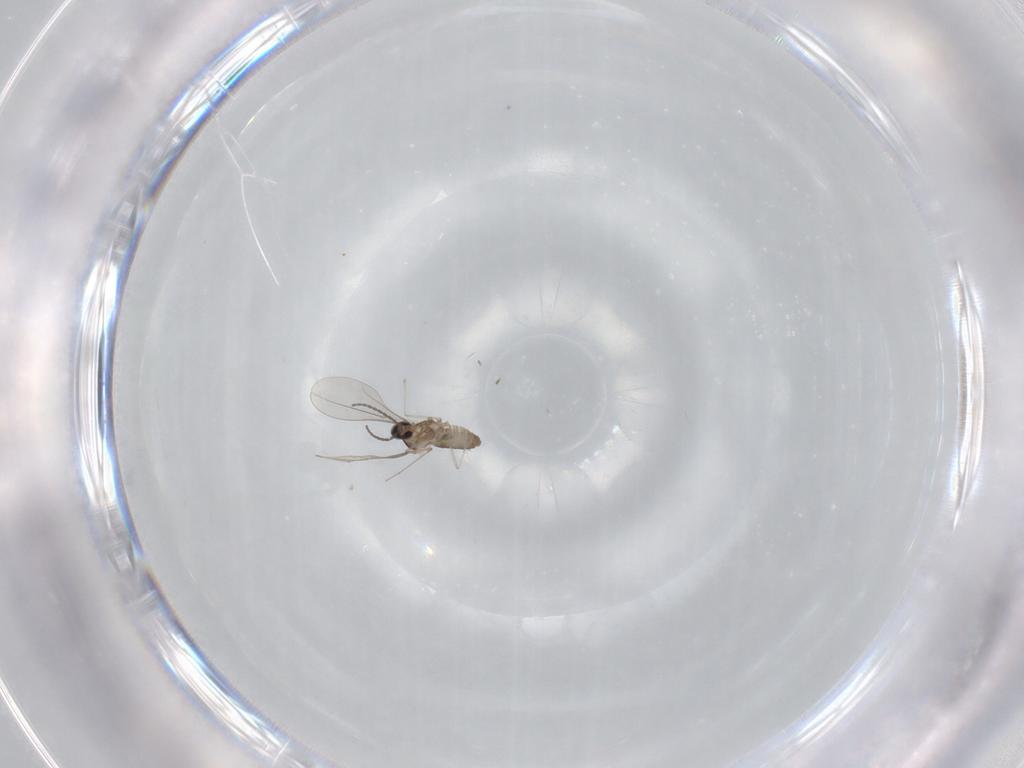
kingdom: Animalia
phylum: Arthropoda
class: Insecta
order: Diptera
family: Cecidomyiidae
